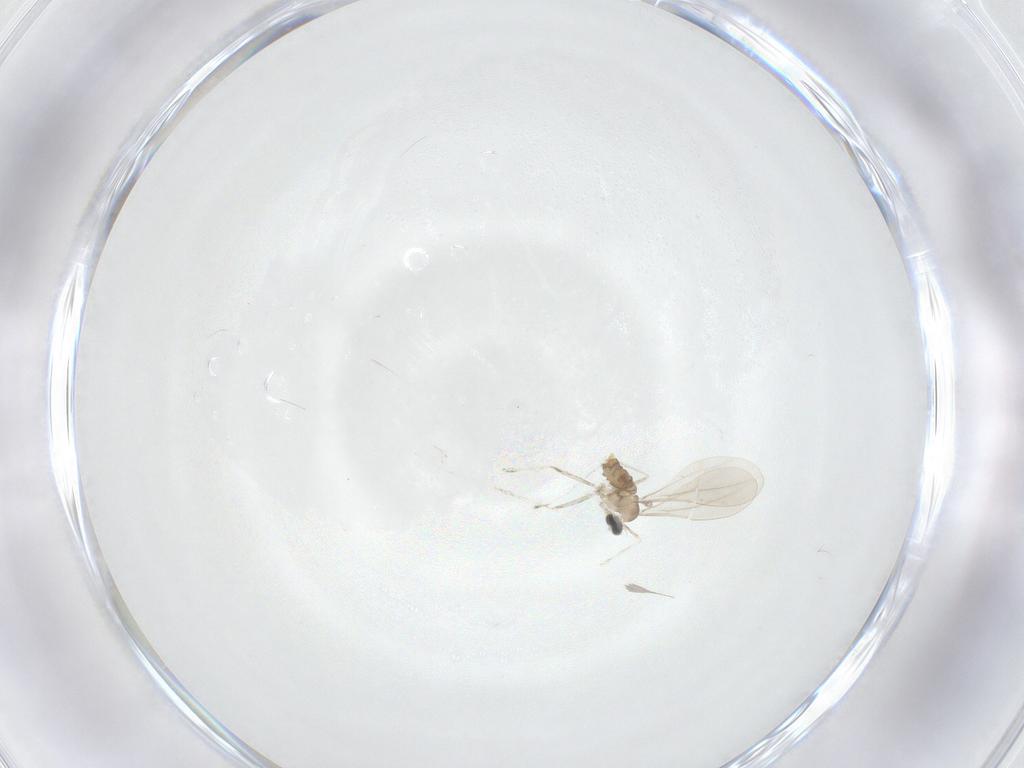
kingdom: Animalia
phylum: Arthropoda
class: Insecta
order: Diptera
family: Cecidomyiidae
